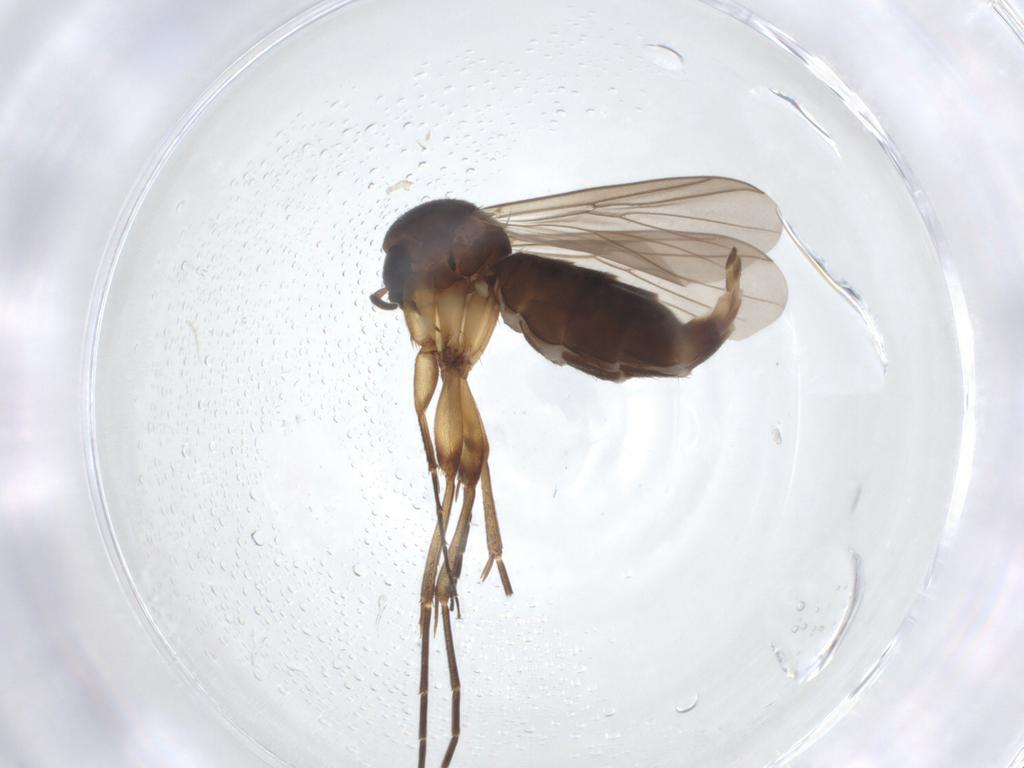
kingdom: Animalia
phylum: Arthropoda
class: Insecta
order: Diptera
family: Mycetophilidae
